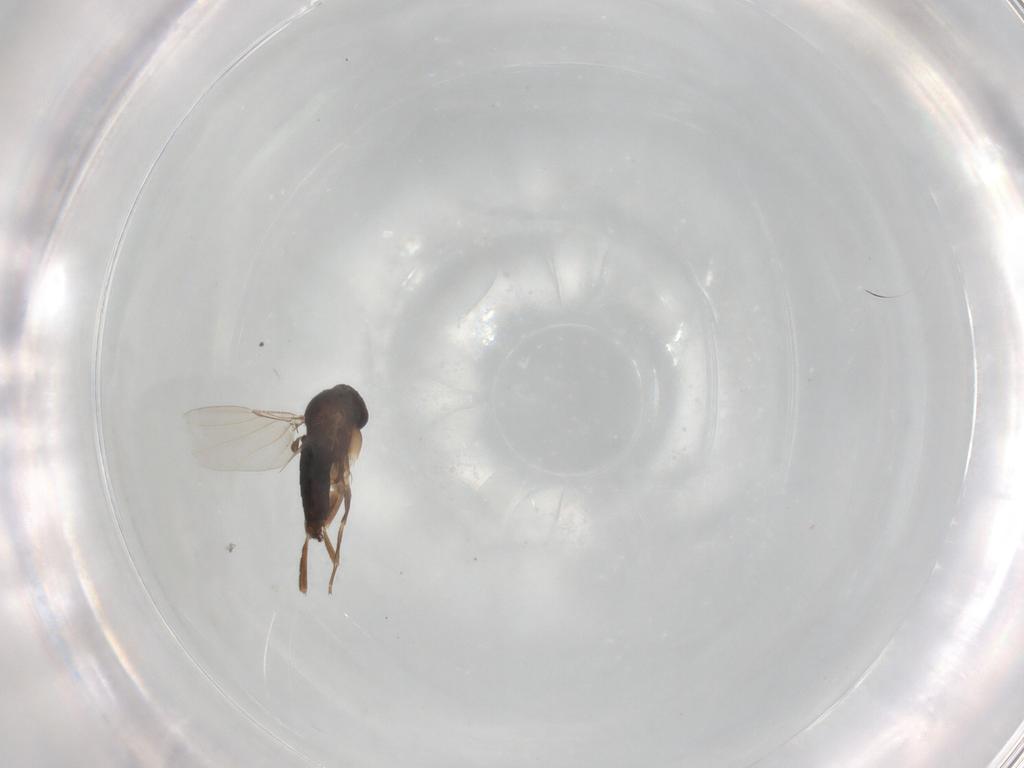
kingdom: Animalia
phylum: Arthropoda
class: Insecta
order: Diptera
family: Phoridae
